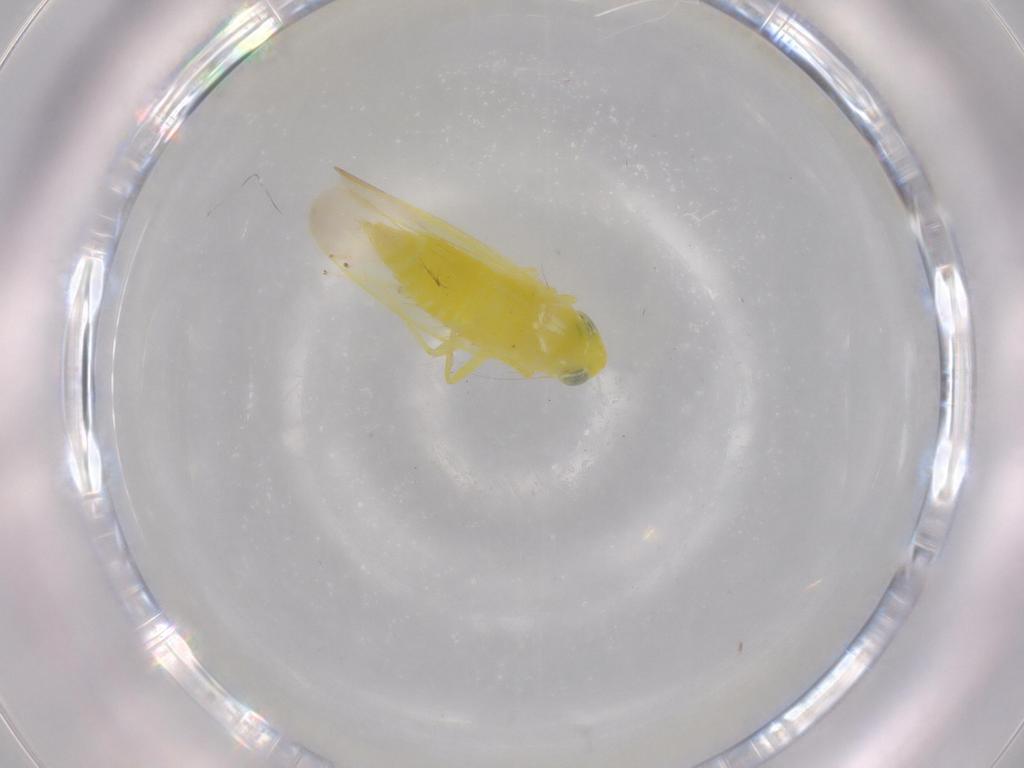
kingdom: Animalia
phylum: Arthropoda
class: Insecta
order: Hemiptera
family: Cicadellidae
